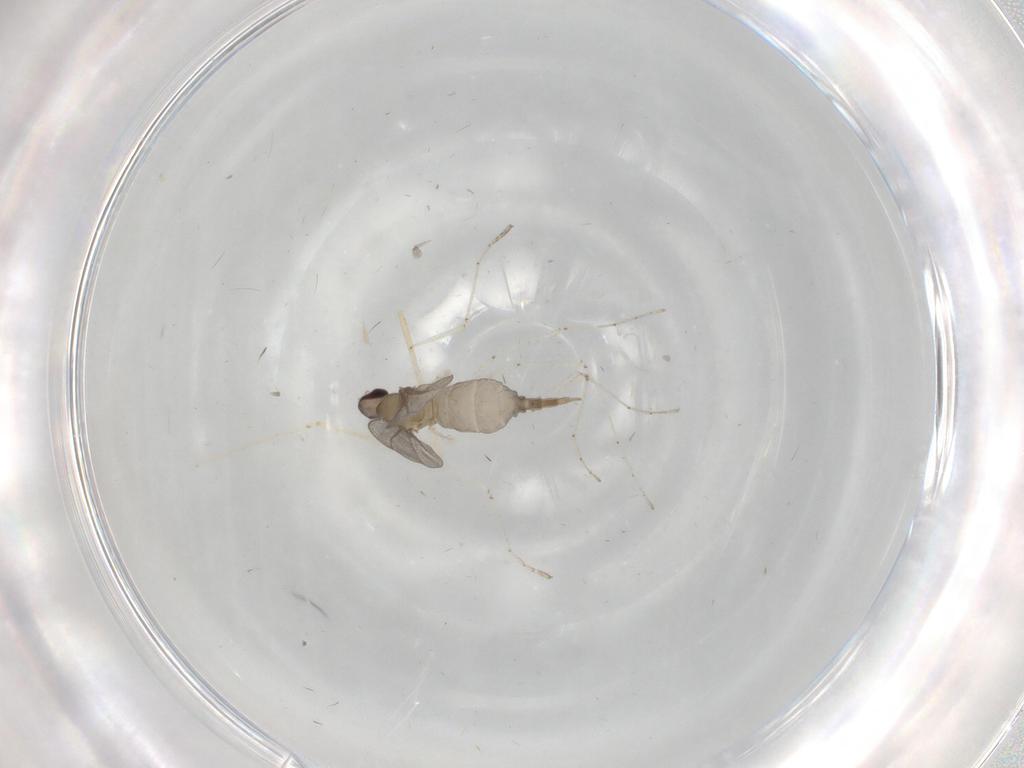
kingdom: Animalia
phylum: Arthropoda
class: Insecta
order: Diptera
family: Cecidomyiidae
